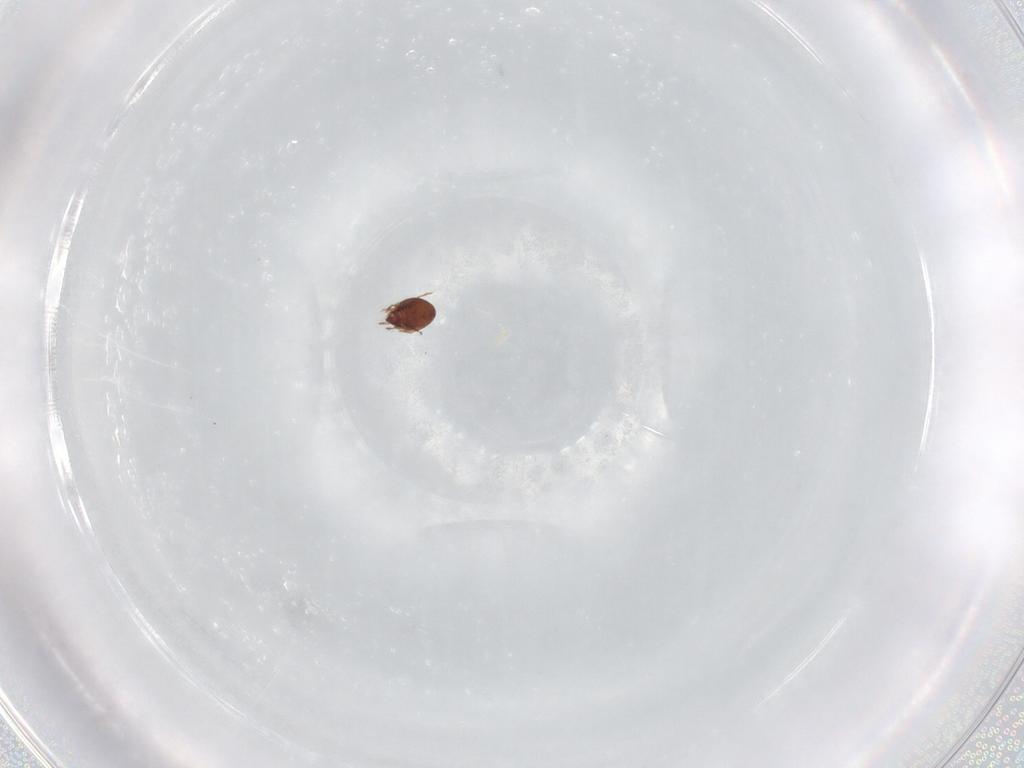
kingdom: Animalia
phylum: Arthropoda
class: Arachnida
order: Sarcoptiformes
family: Ceratozetidae
